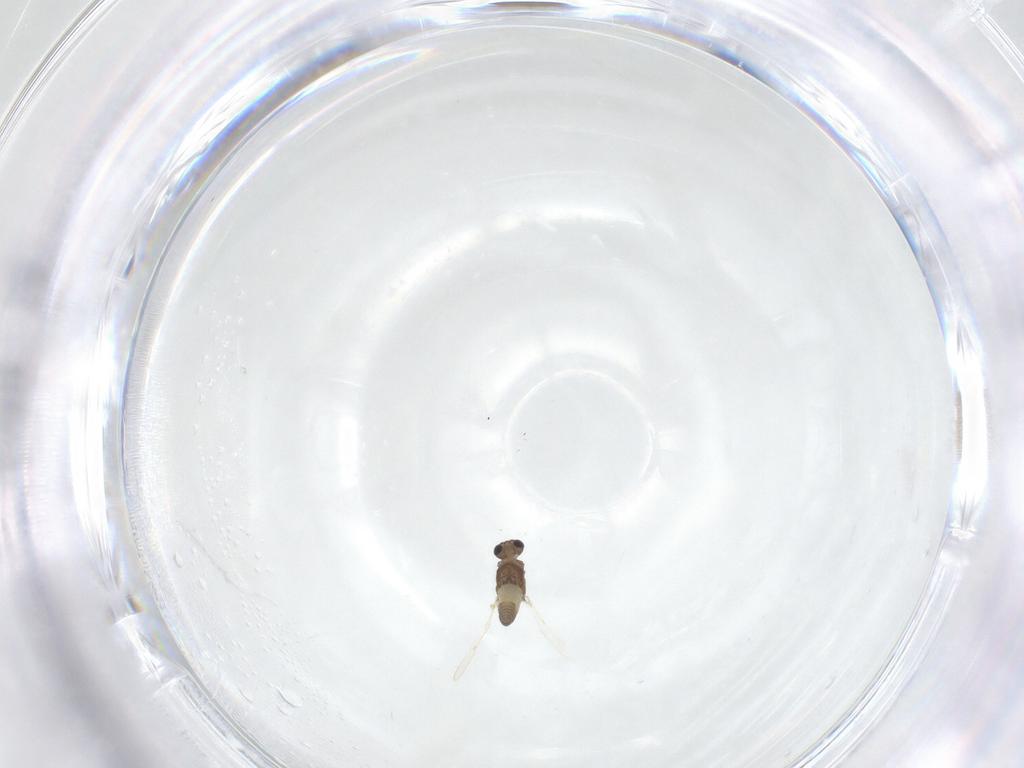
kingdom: Animalia
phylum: Arthropoda
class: Insecta
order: Diptera
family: Chironomidae
